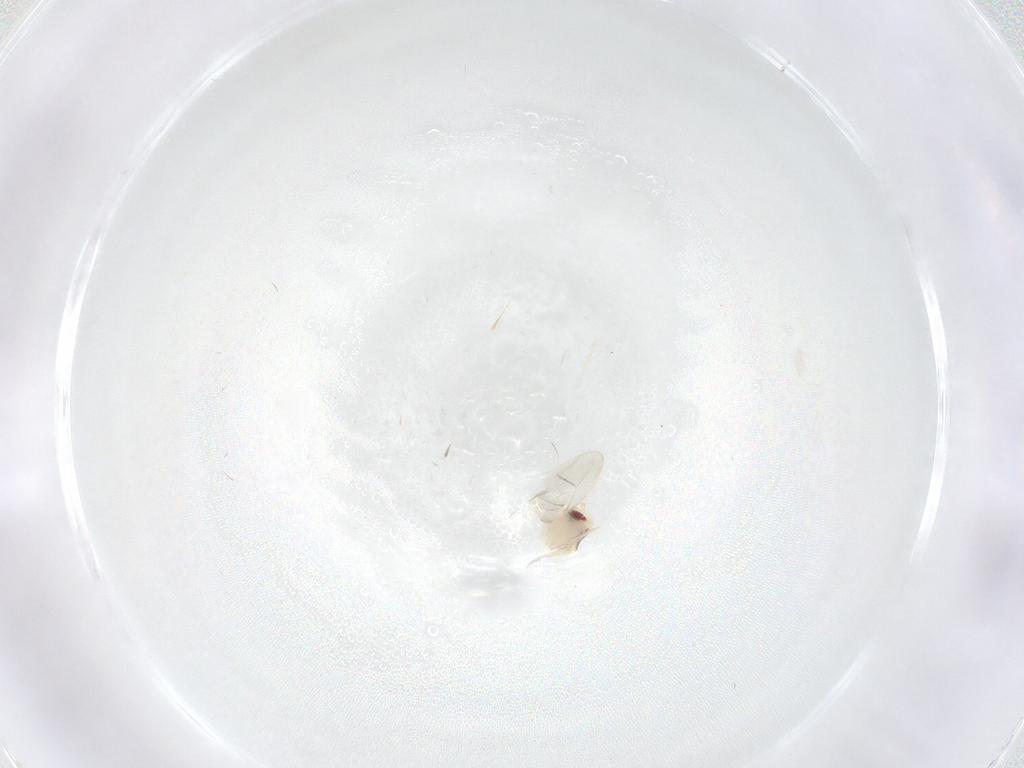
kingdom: Animalia
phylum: Arthropoda
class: Insecta
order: Hemiptera
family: Aleyrodidae
